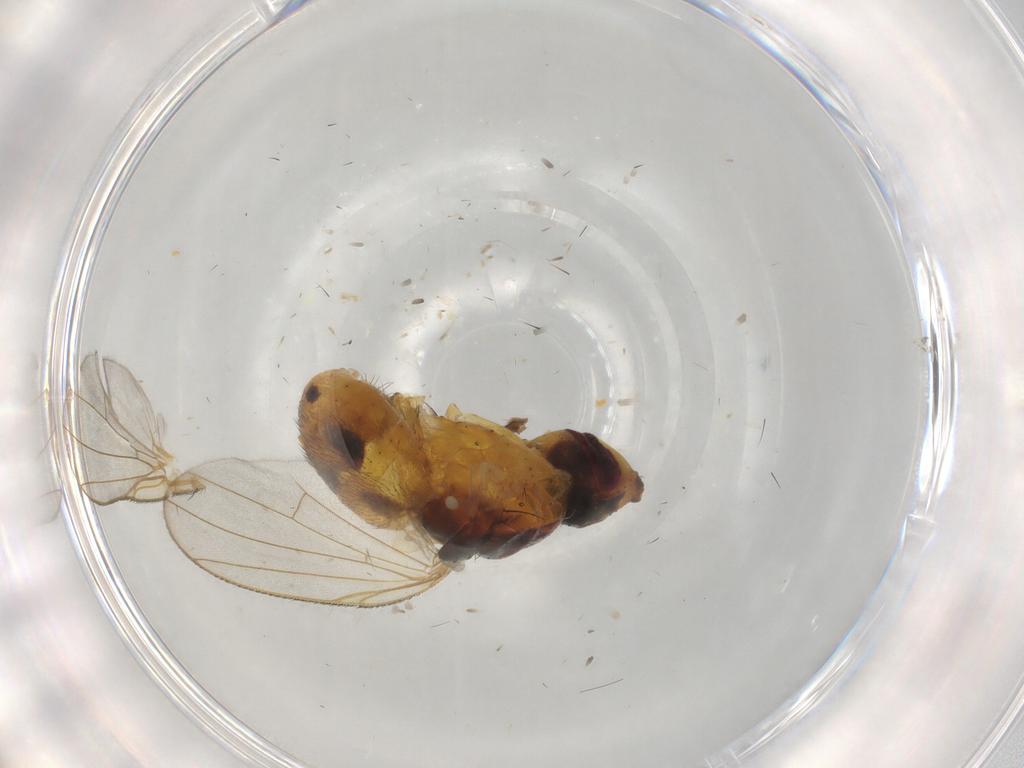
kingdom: Animalia
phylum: Arthropoda
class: Insecta
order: Diptera
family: Muscidae
